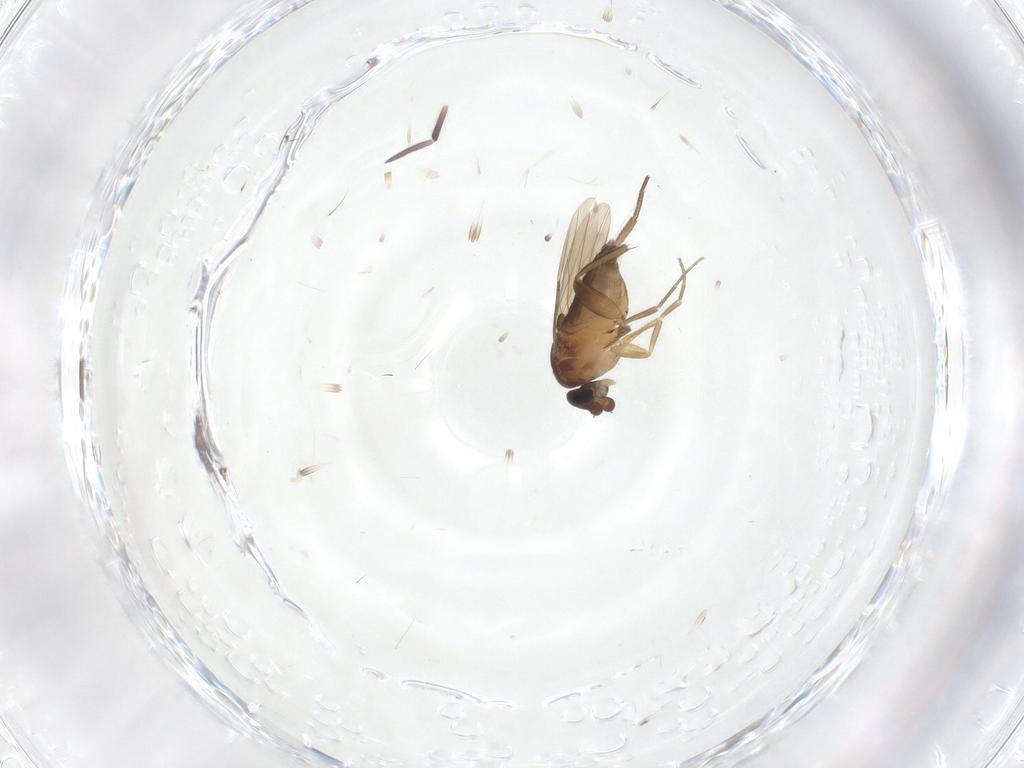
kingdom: Animalia
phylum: Arthropoda
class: Insecta
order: Diptera
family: Phoridae
